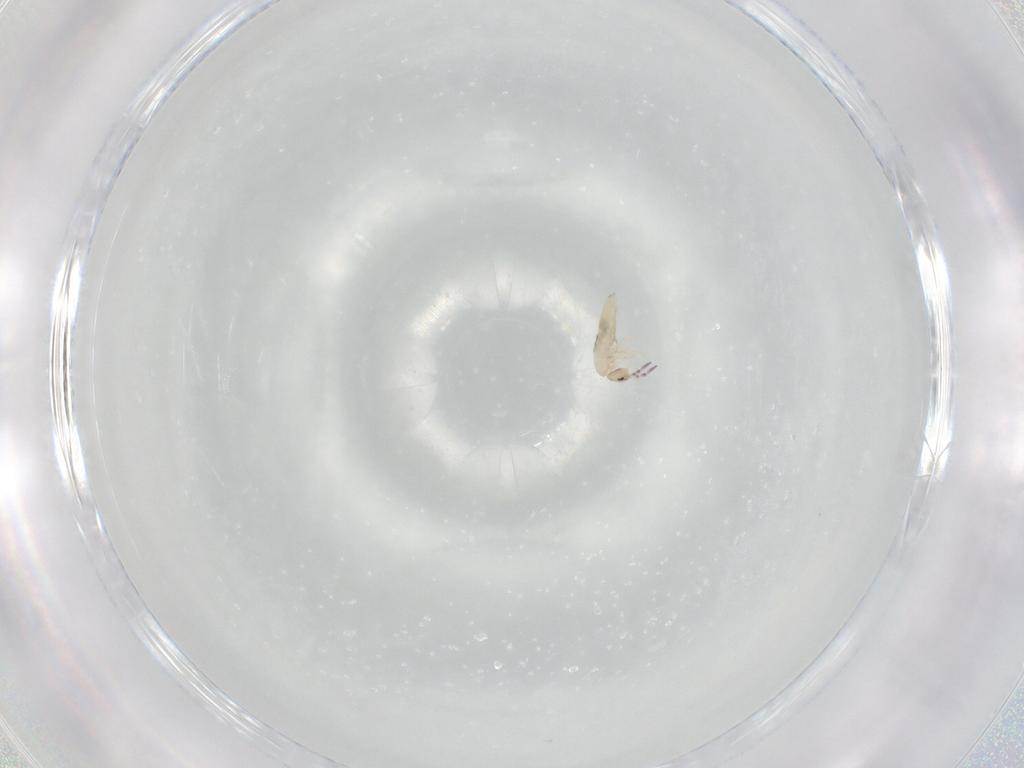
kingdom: Animalia
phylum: Arthropoda
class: Collembola
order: Entomobryomorpha
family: Entomobryidae
